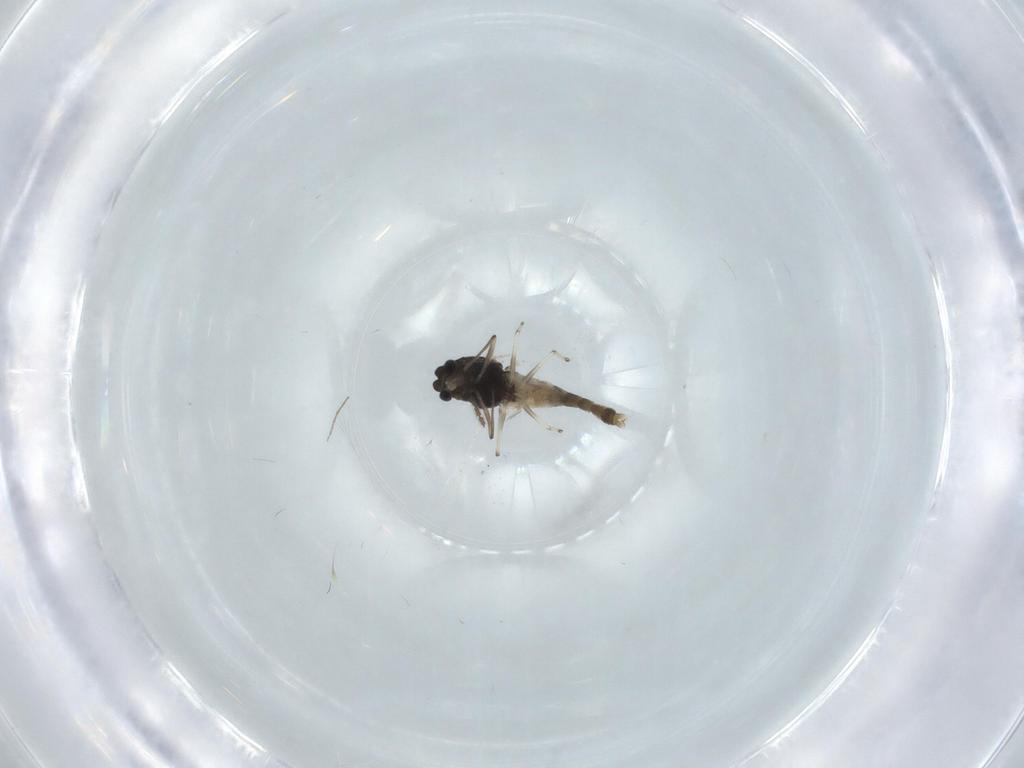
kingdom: Animalia
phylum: Arthropoda
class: Insecta
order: Diptera
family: Chironomidae
